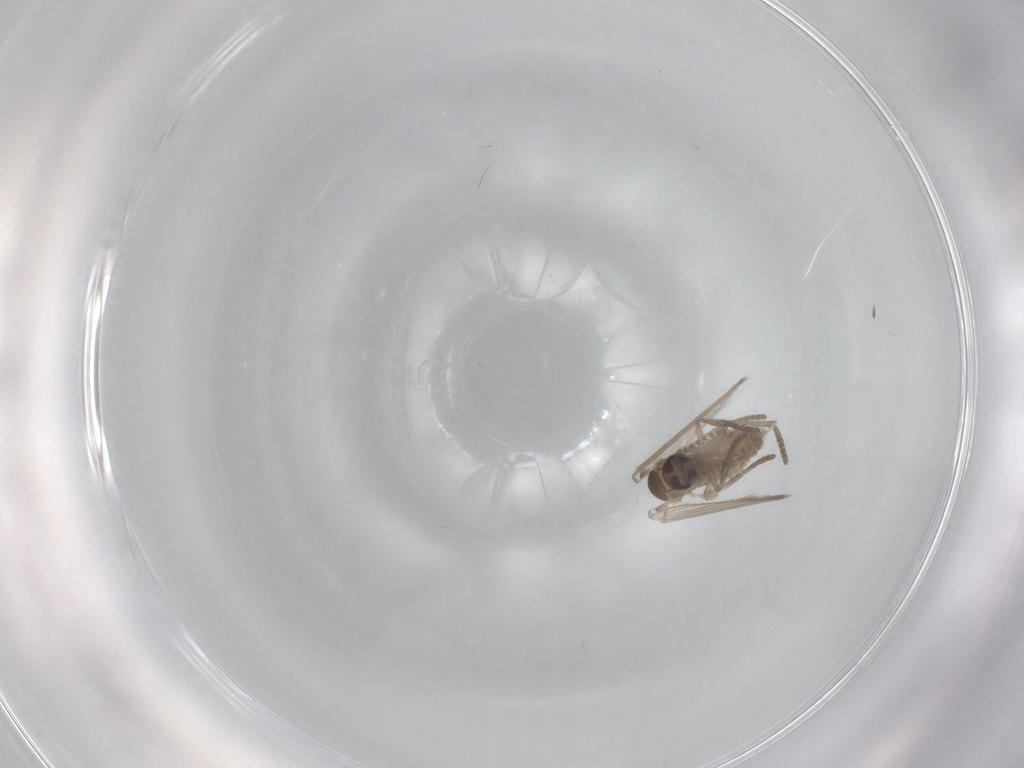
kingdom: Animalia
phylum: Arthropoda
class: Insecta
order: Diptera
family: Psychodidae
